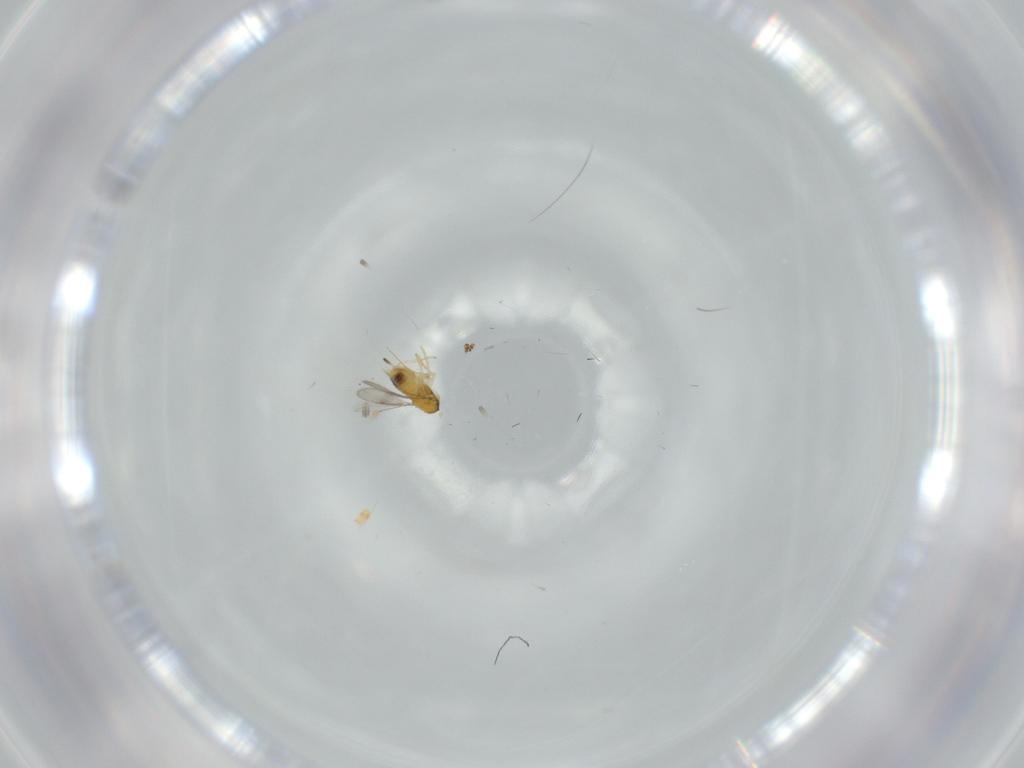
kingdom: Animalia
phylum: Arthropoda
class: Insecta
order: Hymenoptera
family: Aphelinidae
